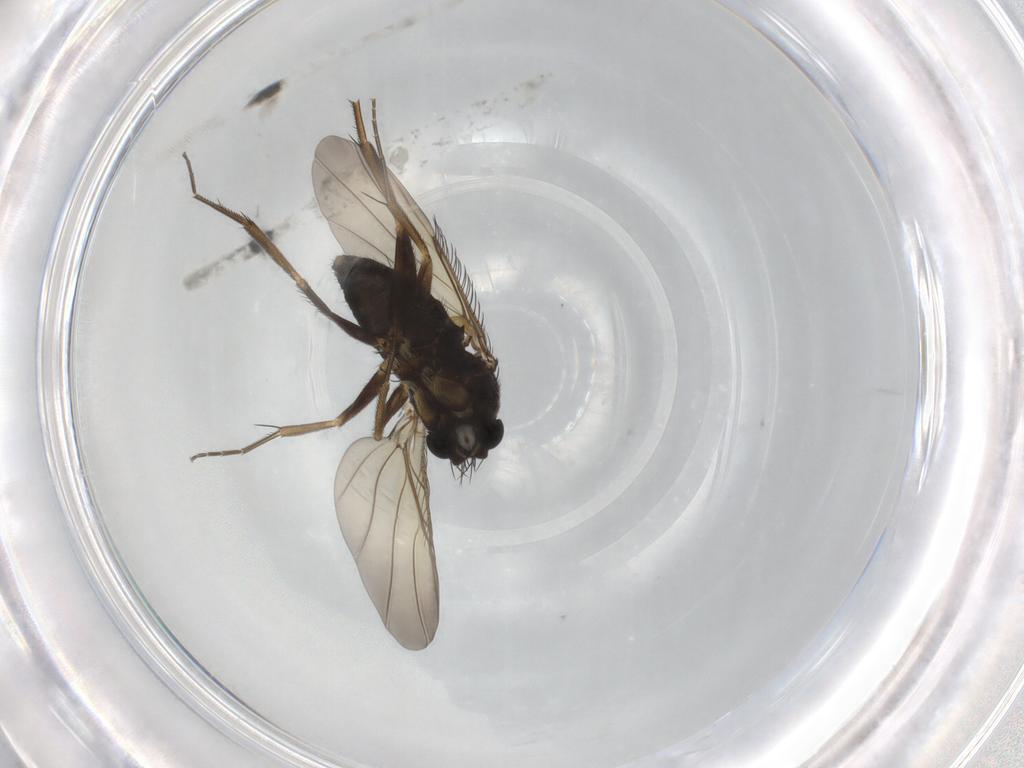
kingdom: Animalia
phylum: Arthropoda
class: Insecta
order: Diptera
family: Phoridae
